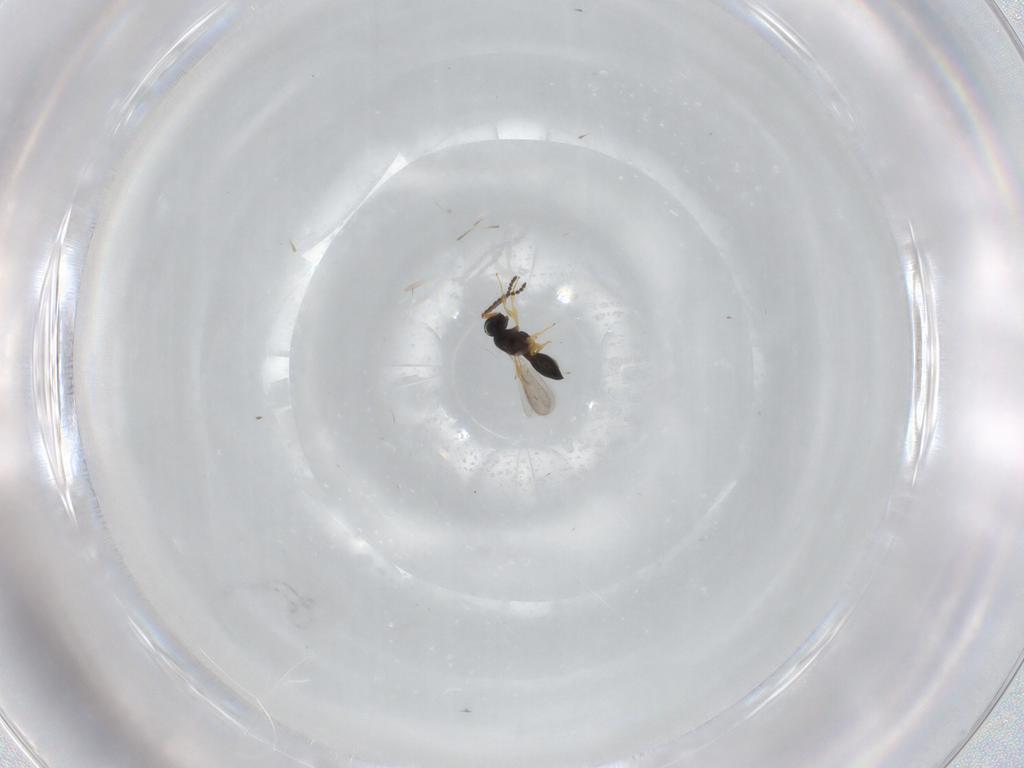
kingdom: Animalia
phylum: Arthropoda
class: Insecta
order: Hymenoptera
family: Scelionidae
